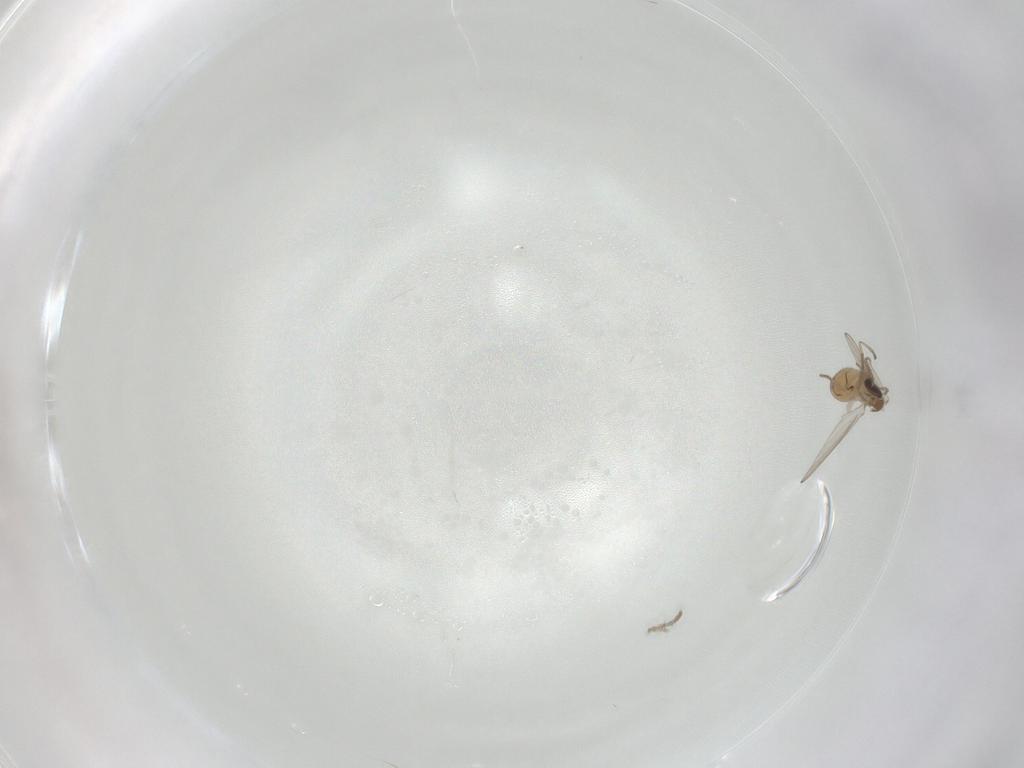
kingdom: Animalia
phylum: Arthropoda
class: Insecta
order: Diptera
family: Psychodidae
